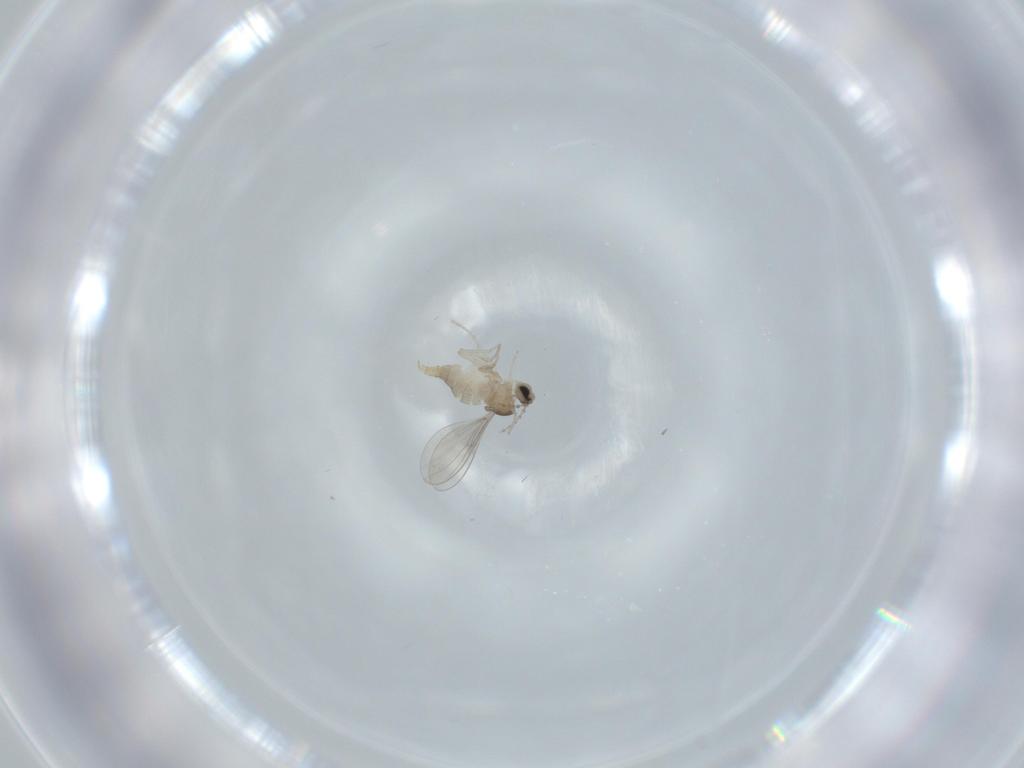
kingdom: Animalia
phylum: Arthropoda
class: Insecta
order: Diptera
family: Cecidomyiidae
